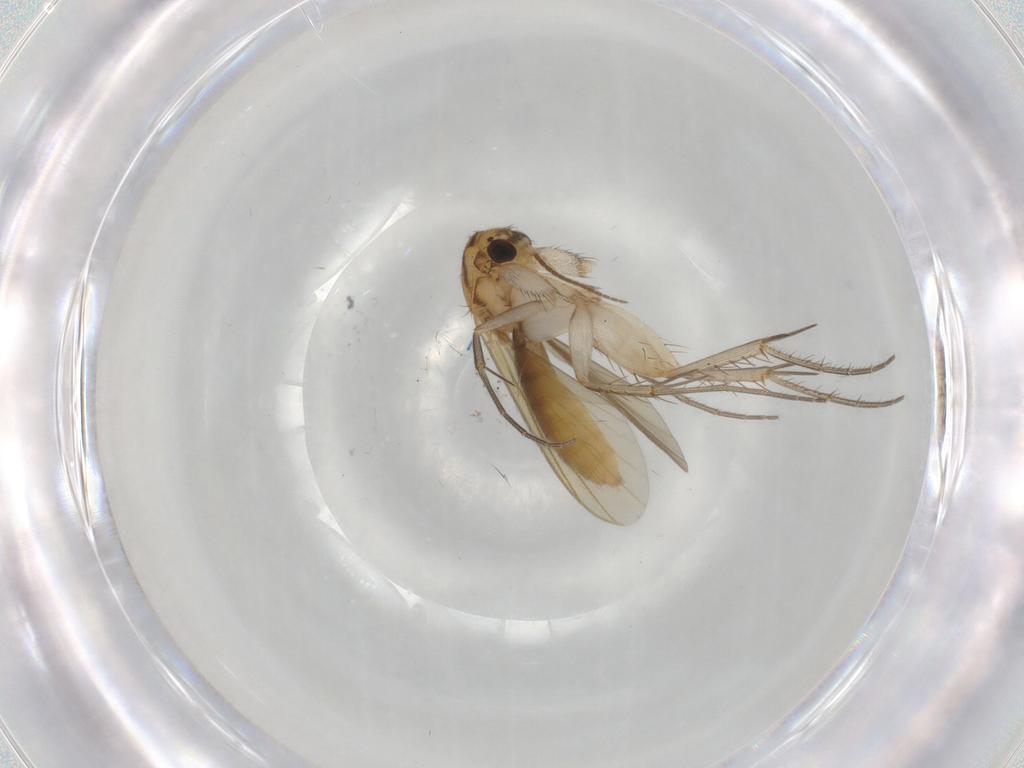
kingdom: Animalia
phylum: Arthropoda
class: Insecta
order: Diptera
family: Mycetophilidae
